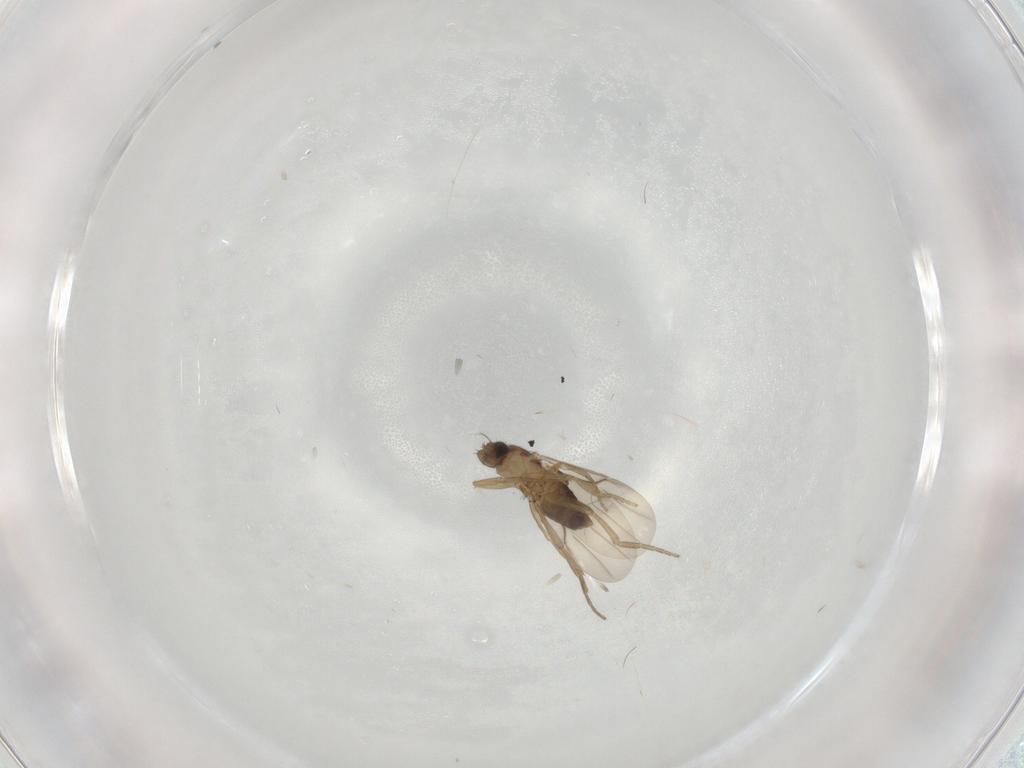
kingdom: Animalia
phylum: Arthropoda
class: Insecta
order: Diptera
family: Phoridae
